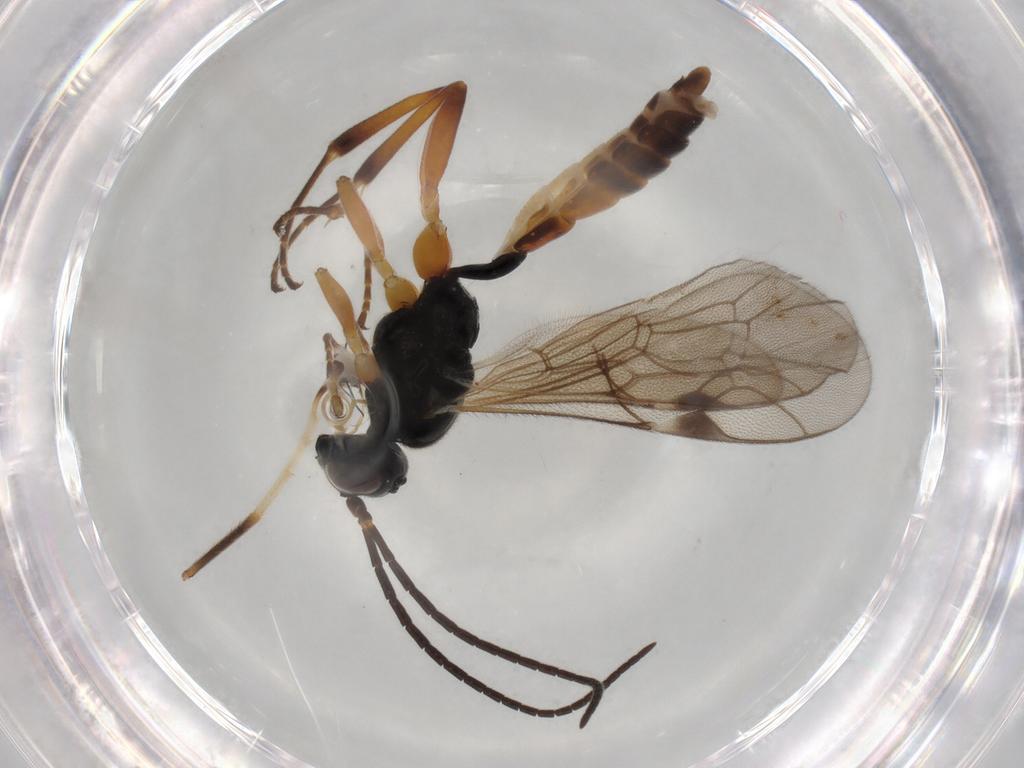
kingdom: Animalia
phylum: Arthropoda
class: Insecta
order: Hymenoptera
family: Ichneumonidae
